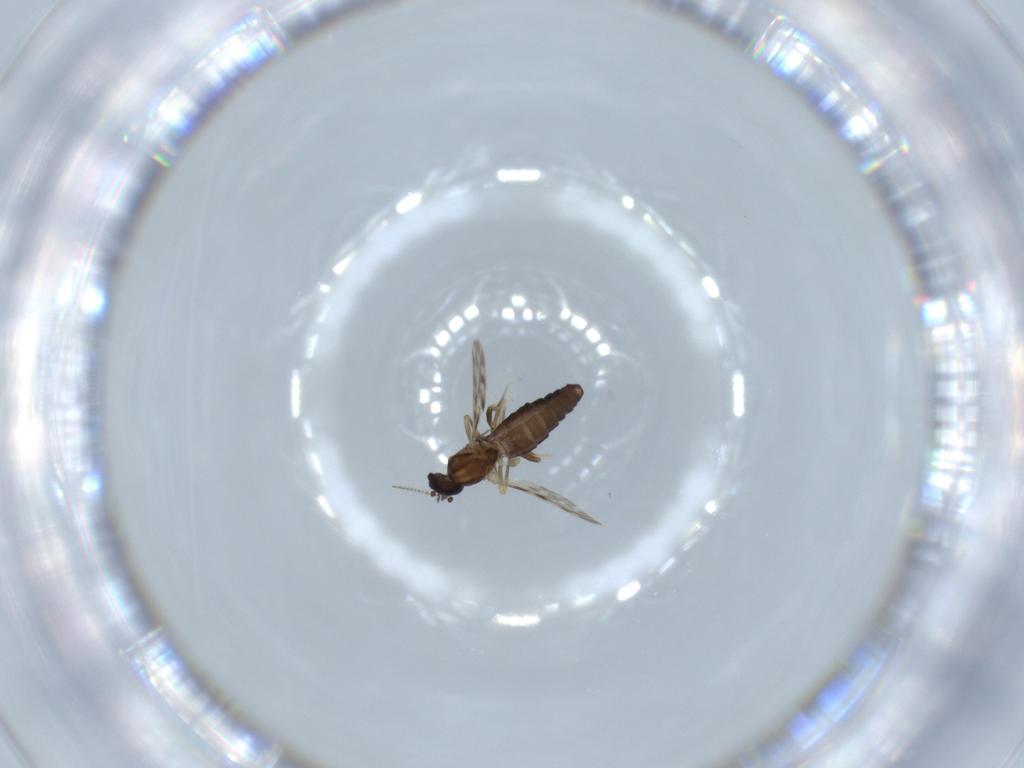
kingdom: Animalia
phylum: Arthropoda
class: Insecta
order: Diptera
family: Ceratopogonidae
